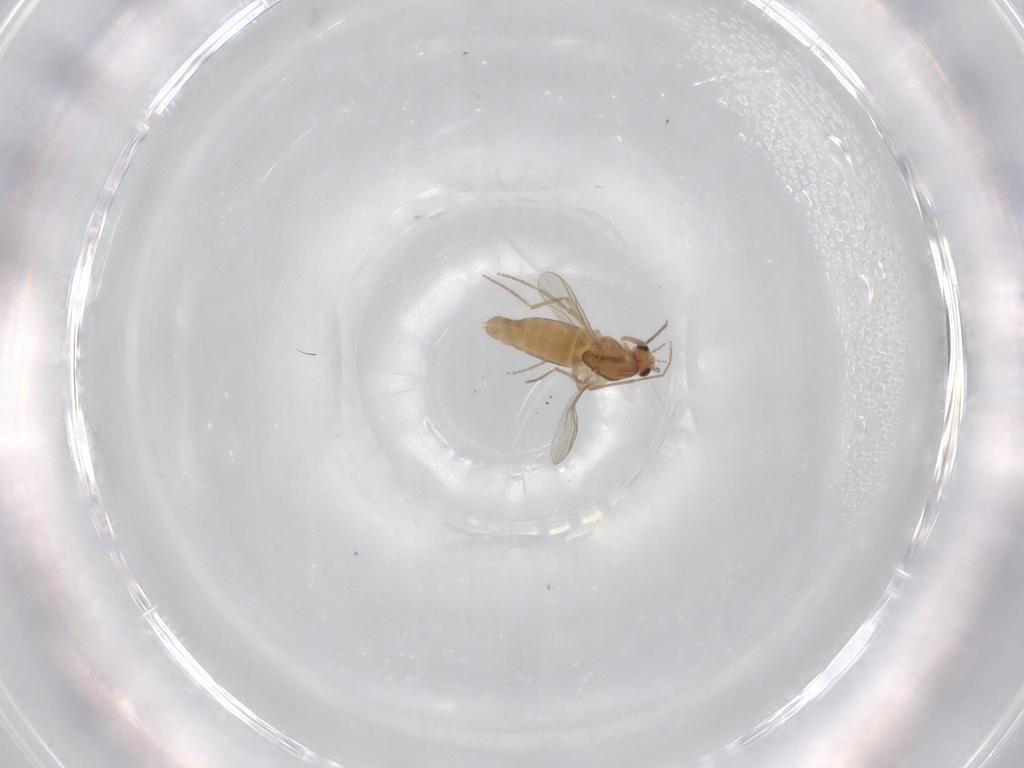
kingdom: Animalia
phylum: Arthropoda
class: Insecta
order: Diptera
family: Chironomidae
